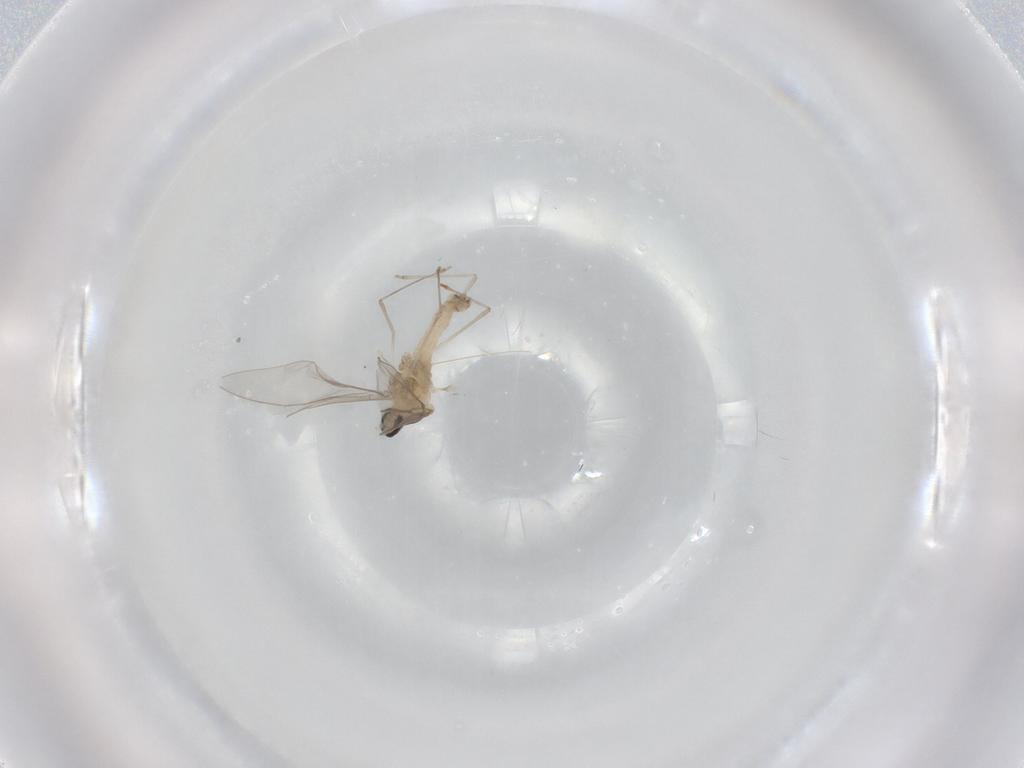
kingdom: Animalia
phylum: Arthropoda
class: Insecta
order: Diptera
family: Cecidomyiidae
